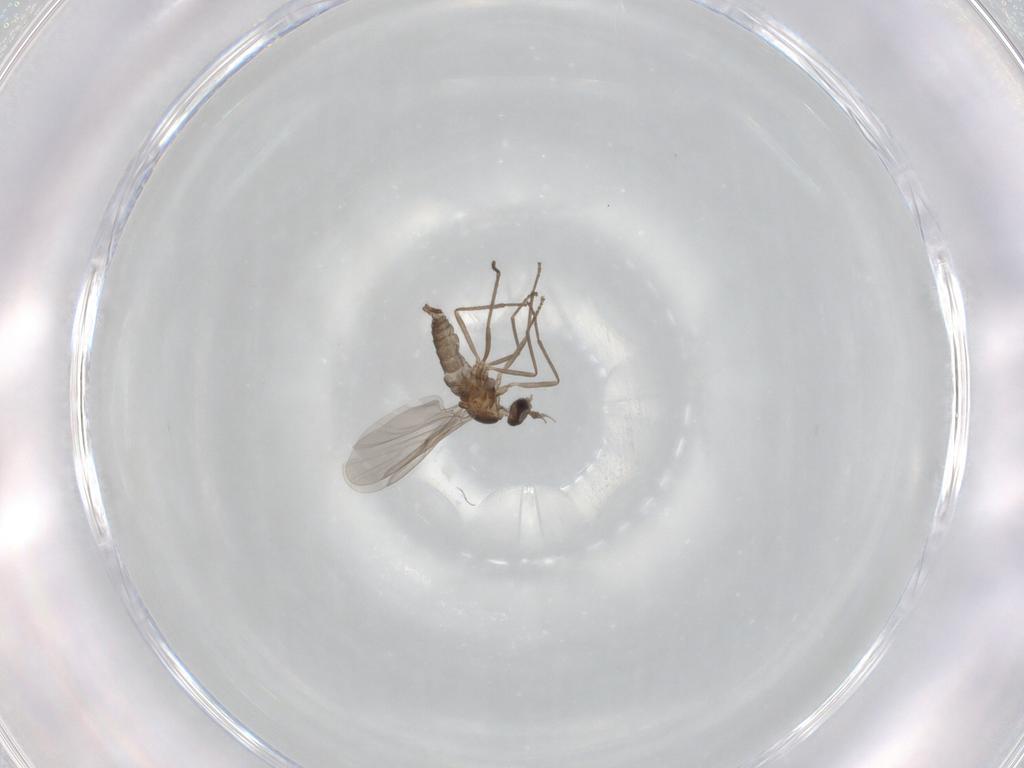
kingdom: Animalia
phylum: Arthropoda
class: Insecta
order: Diptera
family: Cecidomyiidae
